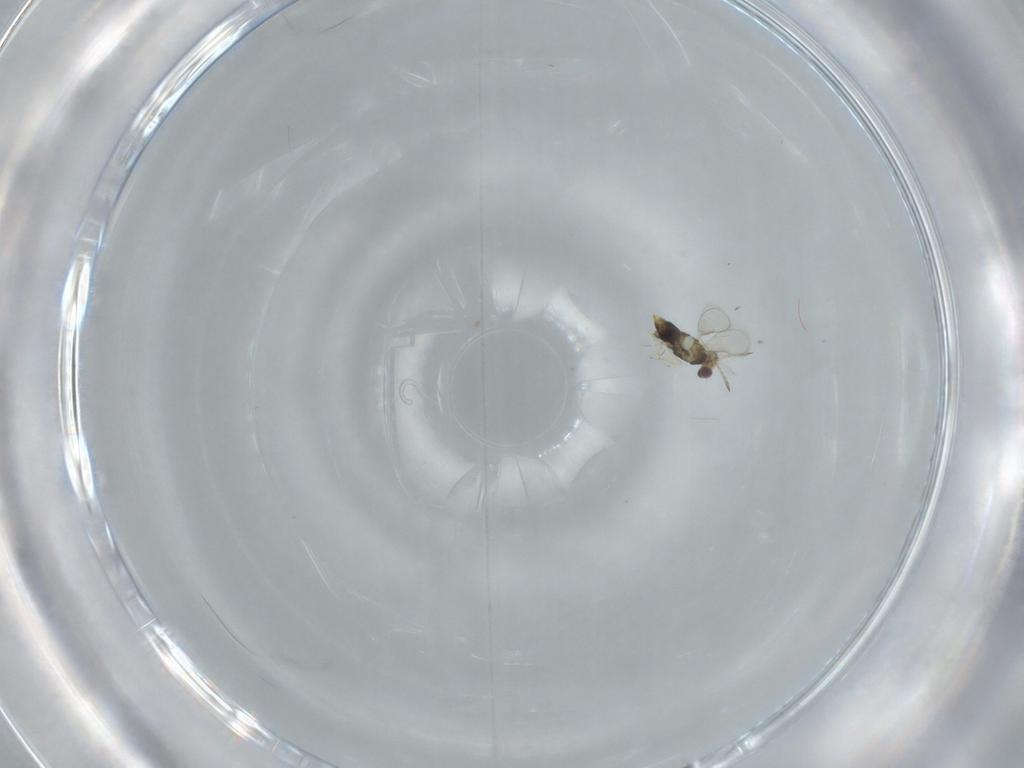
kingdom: Animalia
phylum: Arthropoda
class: Insecta
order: Hymenoptera
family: Aphelinidae
